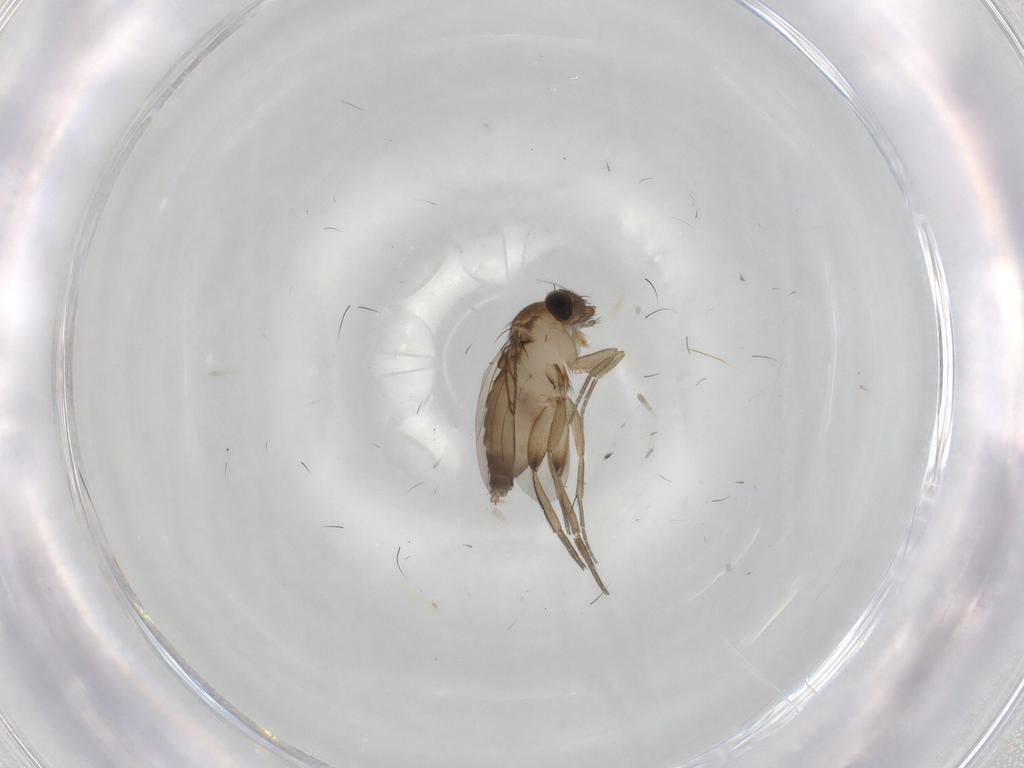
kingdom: Animalia
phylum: Arthropoda
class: Insecta
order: Diptera
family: Phoridae
